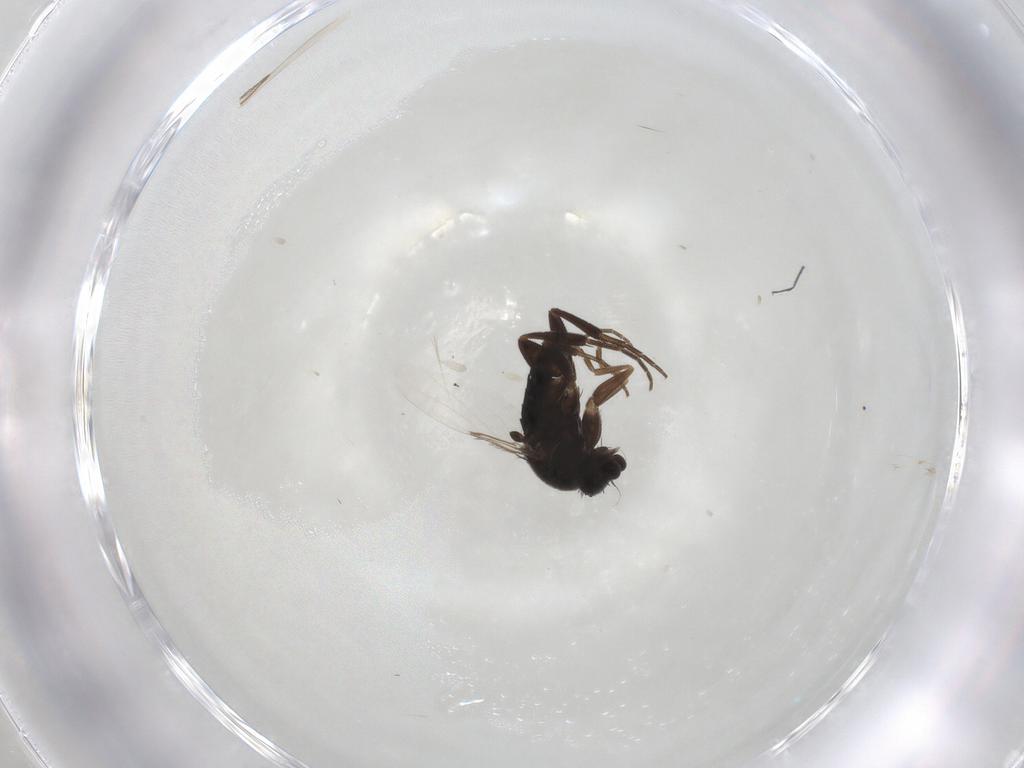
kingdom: Animalia
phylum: Arthropoda
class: Insecta
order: Diptera
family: Phoridae
